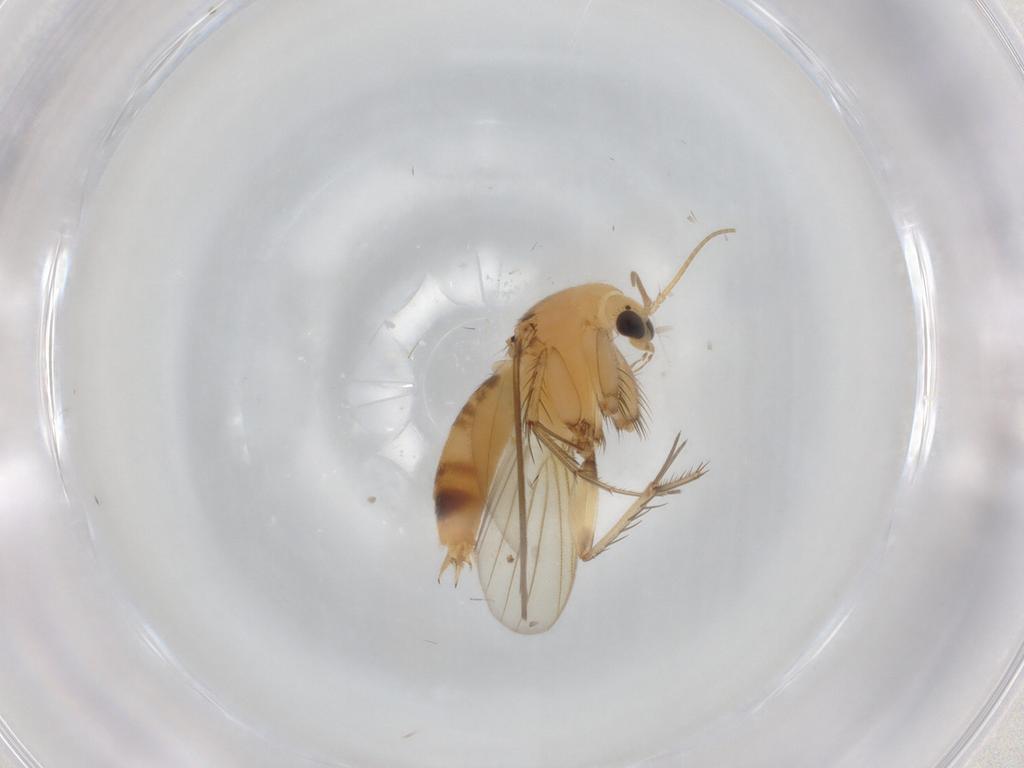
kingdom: Animalia
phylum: Arthropoda
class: Insecta
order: Diptera
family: Mycetophilidae
